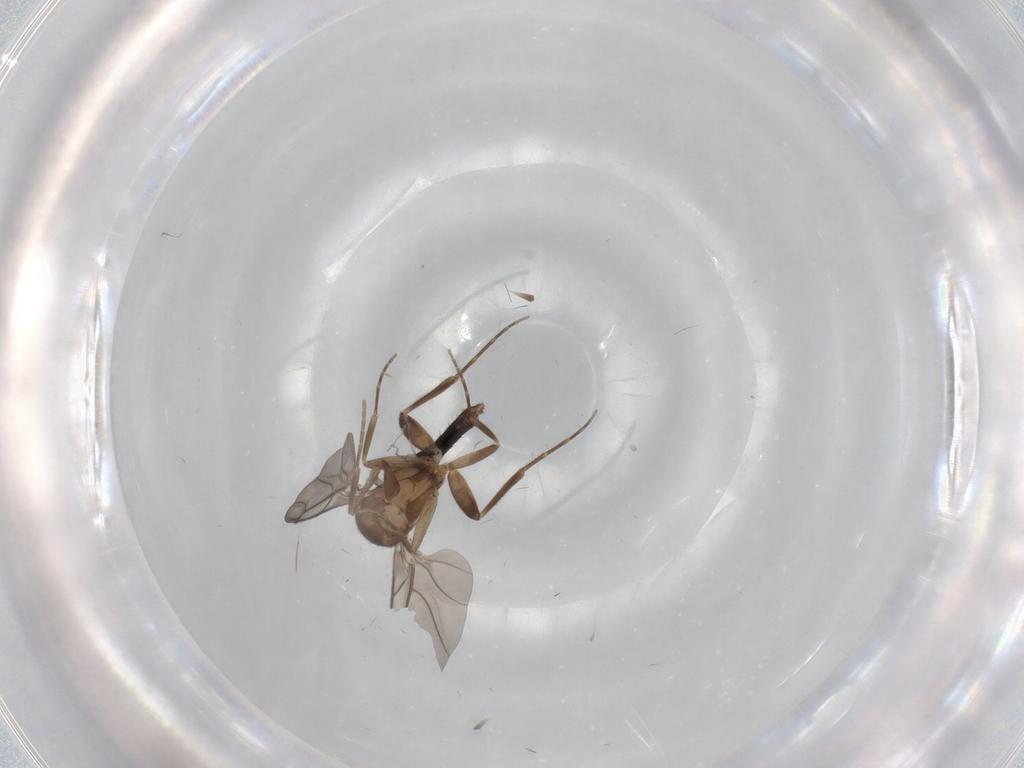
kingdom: Animalia
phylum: Arthropoda
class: Insecta
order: Diptera
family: Phoridae
